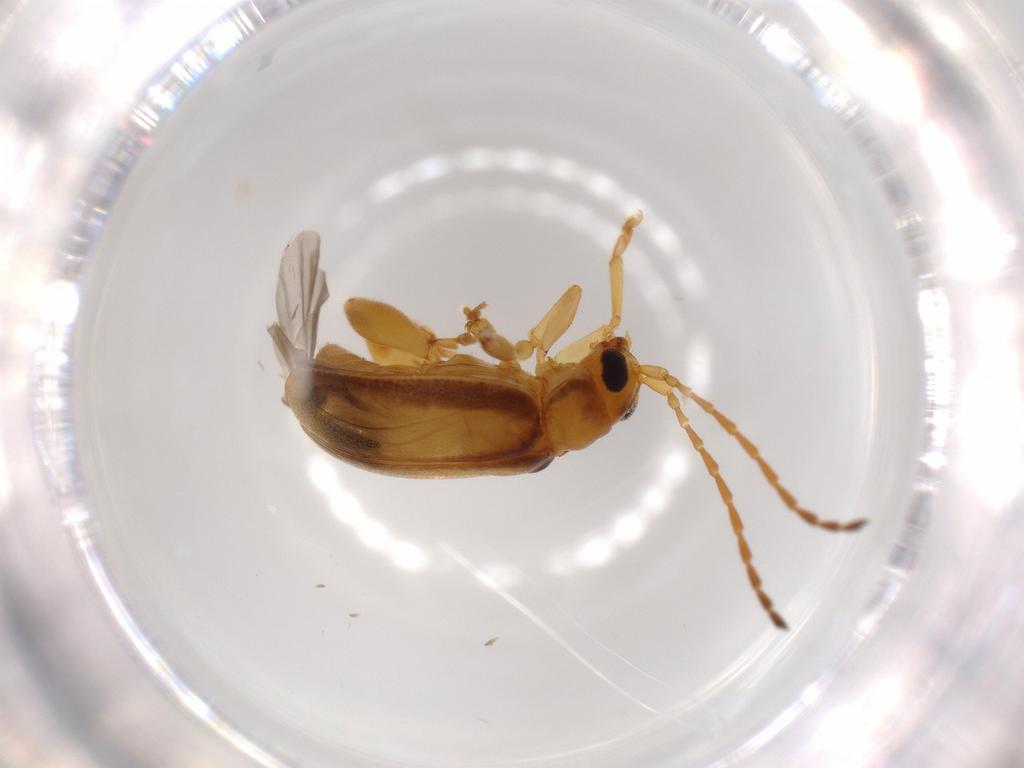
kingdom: Animalia
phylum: Arthropoda
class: Insecta
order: Coleoptera
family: Chrysomelidae
